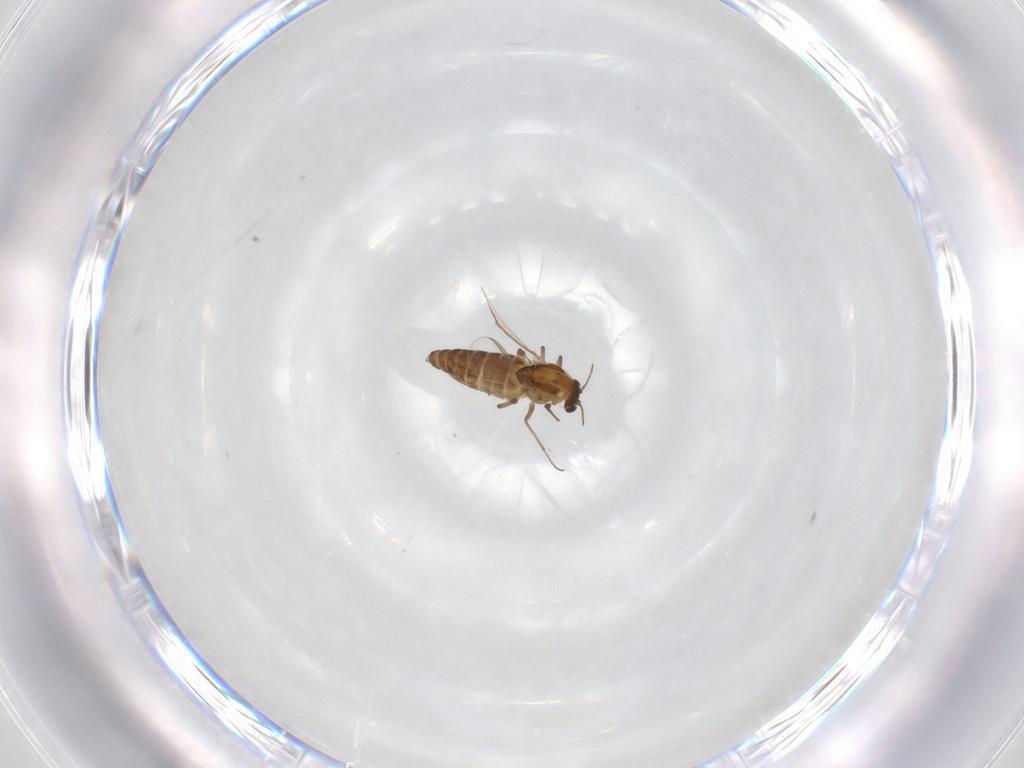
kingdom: Animalia
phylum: Arthropoda
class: Insecta
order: Diptera
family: Chironomidae
